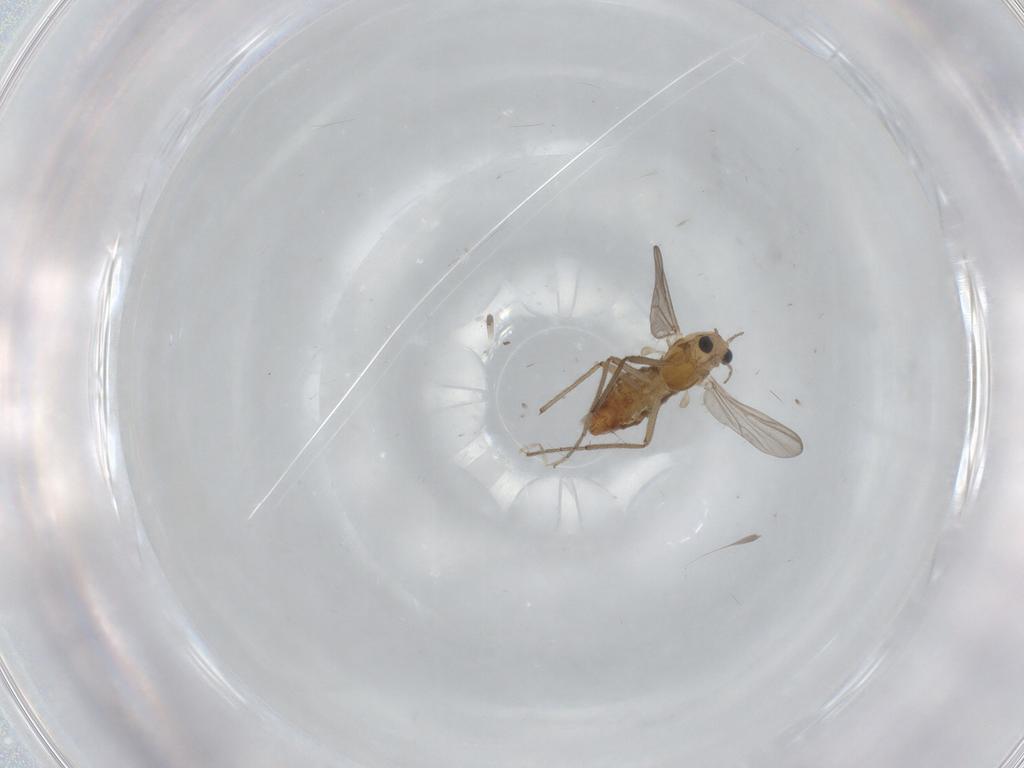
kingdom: Animalia
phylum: Arthropoda
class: Insecta
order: Diptera
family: Chironomidae
